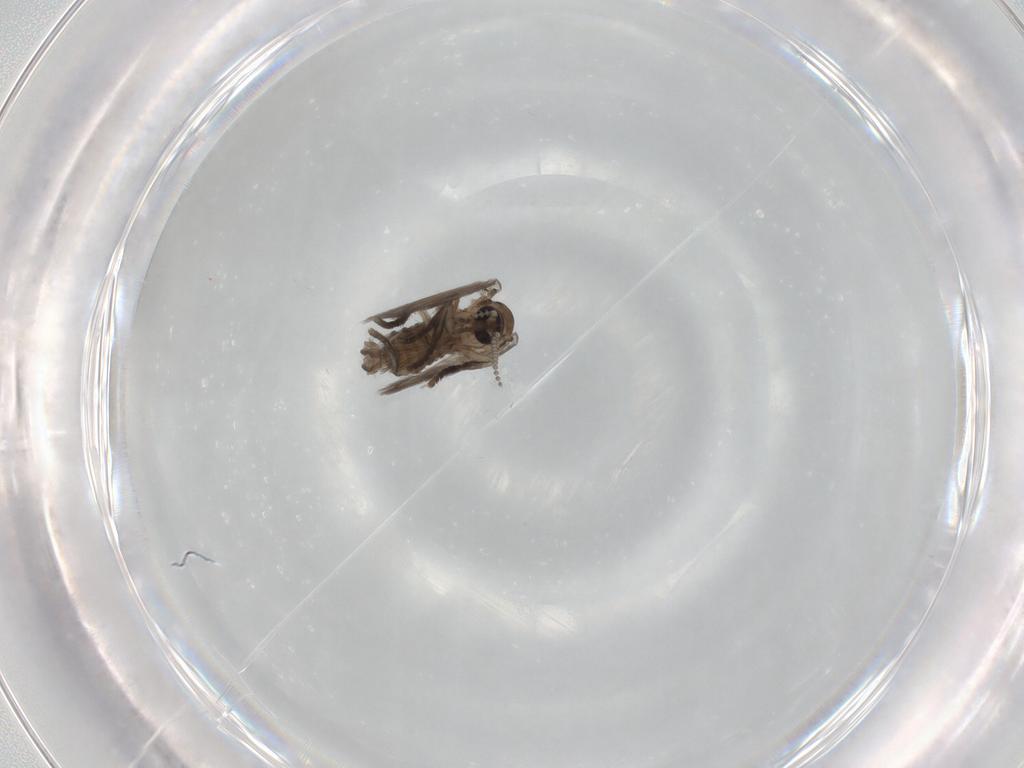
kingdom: Animalia
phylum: Arthropoda
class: Insecta
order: Diptera
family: Psychodidae
